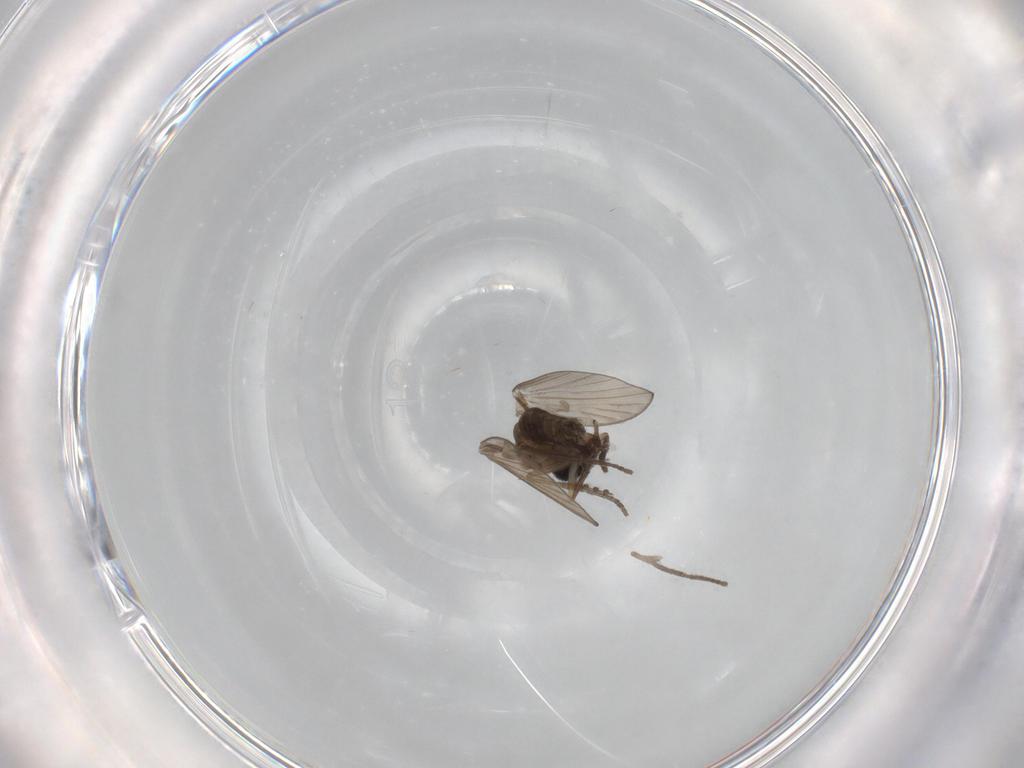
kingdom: Animalia
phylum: Arthropoda
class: Insecta
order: Diptera
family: Psychodidae
